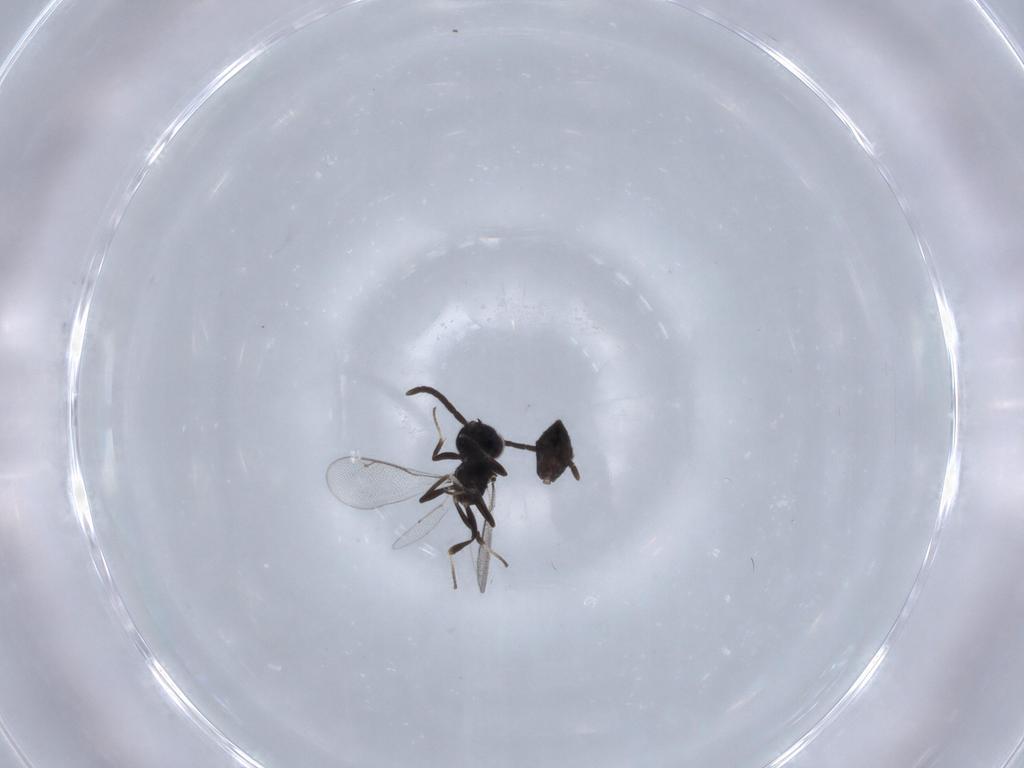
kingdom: Animalia
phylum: Arthropoda
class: Insecta
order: Hymenoptera
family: Eupelmidae
